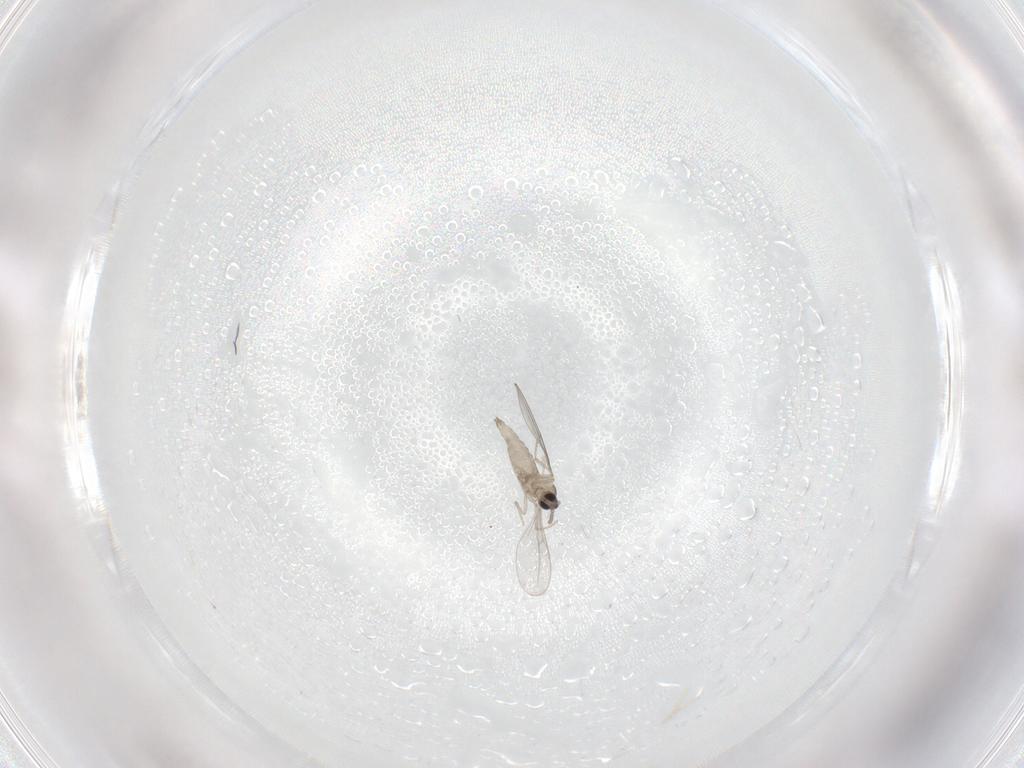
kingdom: Animalia
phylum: Arthropoda
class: Insecta
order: Diptera
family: Cecidomyiidae
